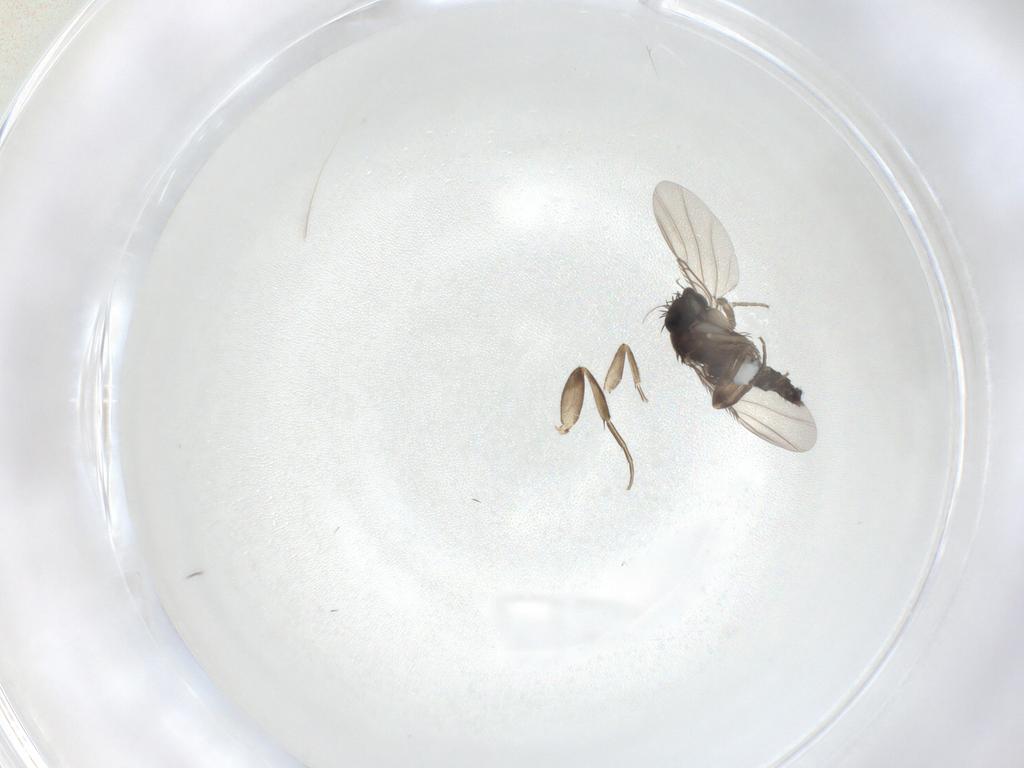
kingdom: Animalia
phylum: Arthropoda
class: Insecta
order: Diptera
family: Phoridae
